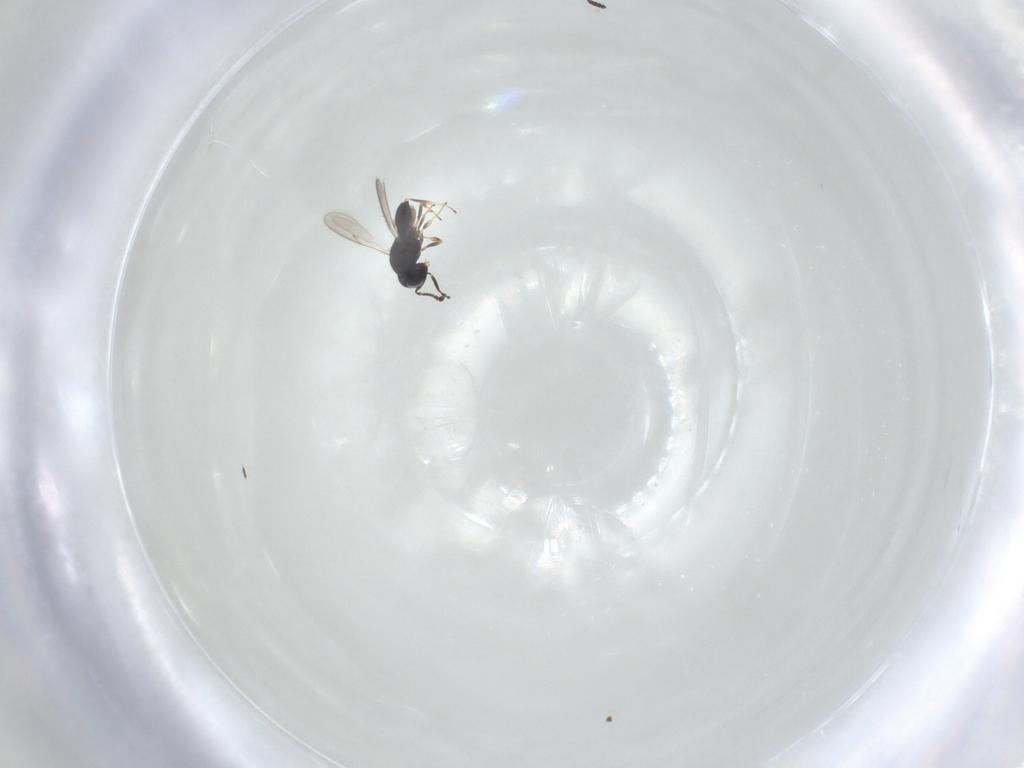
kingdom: Animalia
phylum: Arthropoda
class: Insecta
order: Hymenoptera
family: Scelionidae
